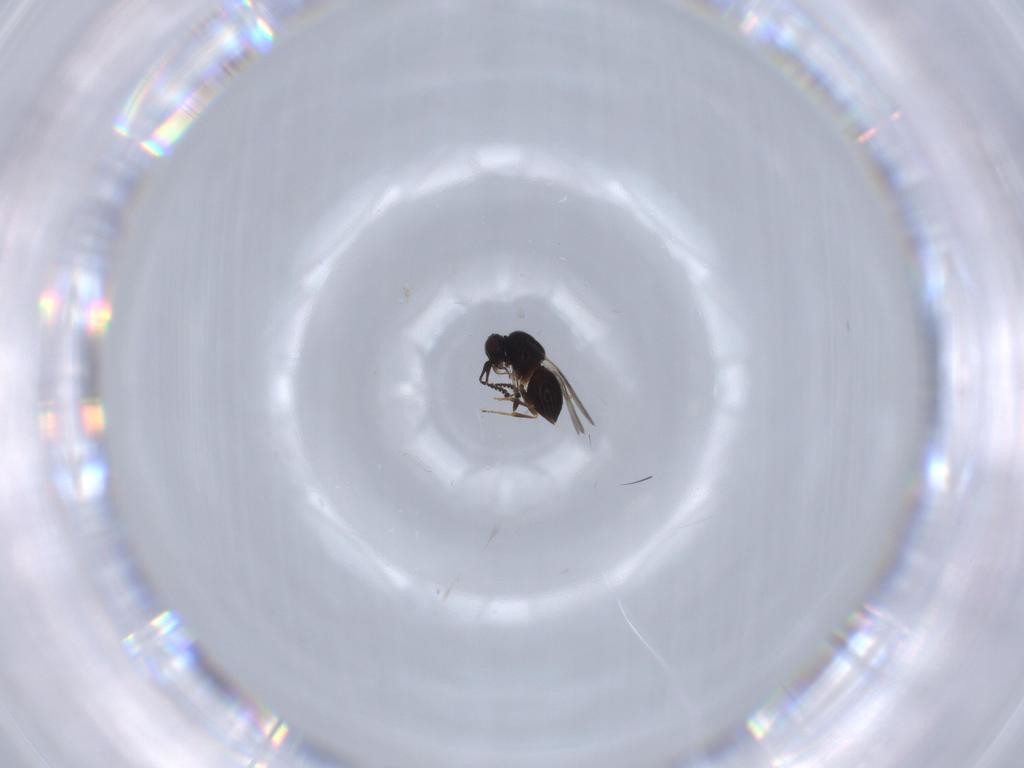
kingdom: Animalia
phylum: Arthropoda
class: Insecta
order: Hymenoptera
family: Ceraphronidae
